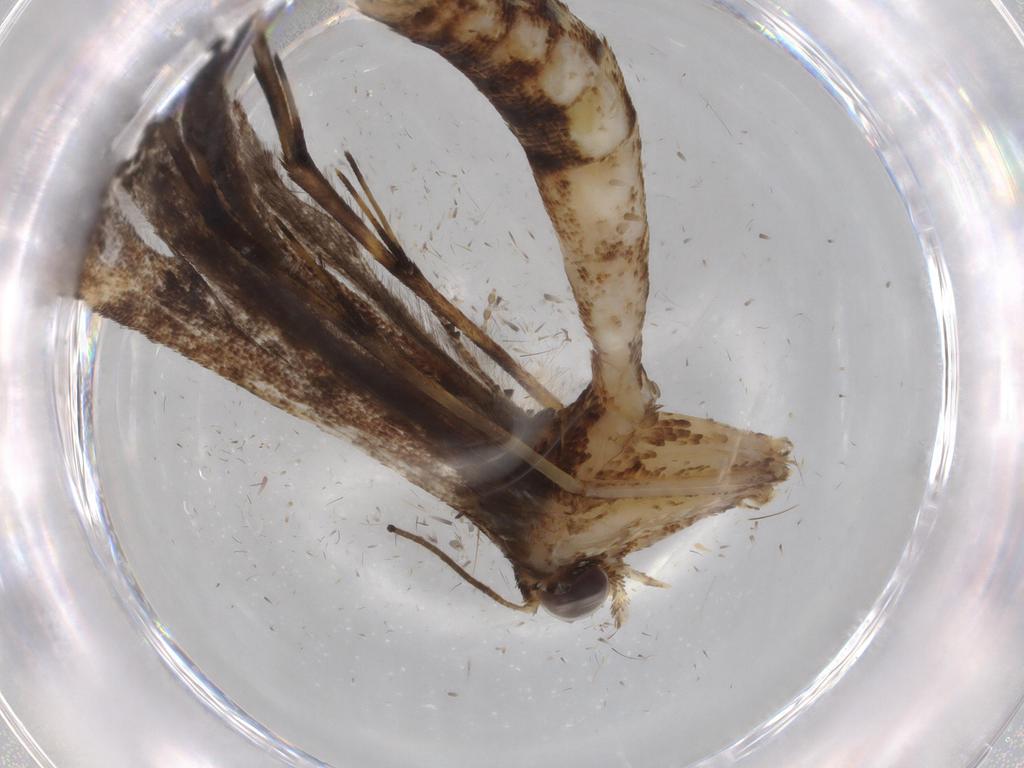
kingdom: Animalia
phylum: Arthropoda
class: Insecta
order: Lepidoptera
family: Pterophoridae
